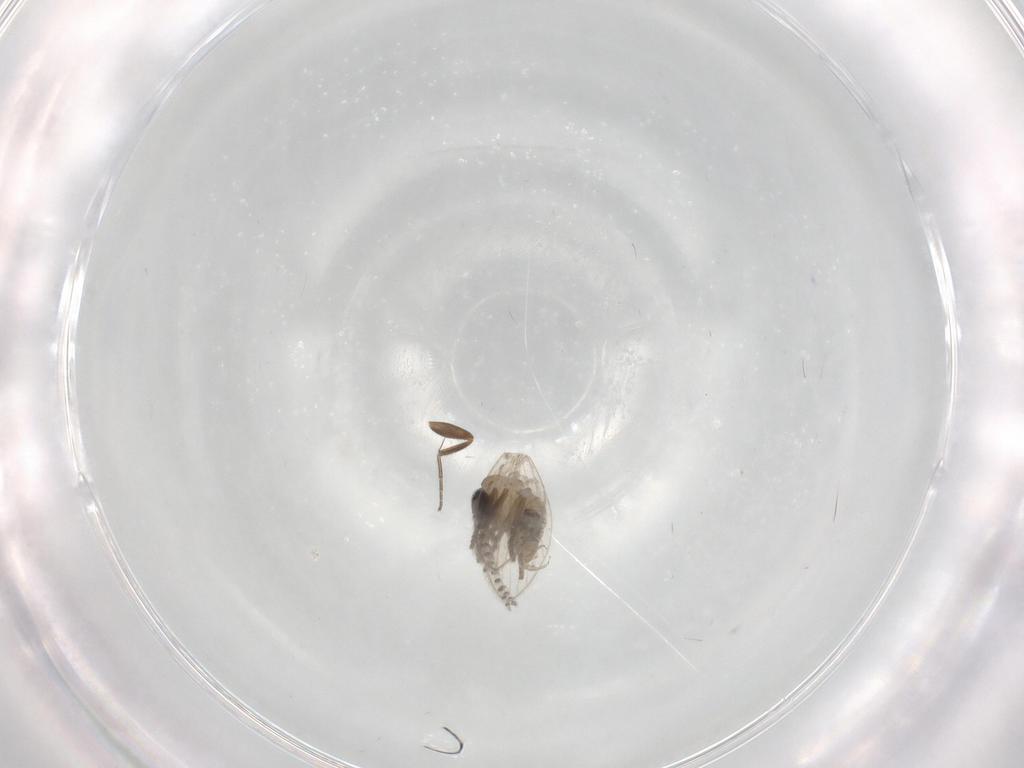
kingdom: Animalia
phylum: Arthropoda
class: Insecta
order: Diptera
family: Psychodidae
